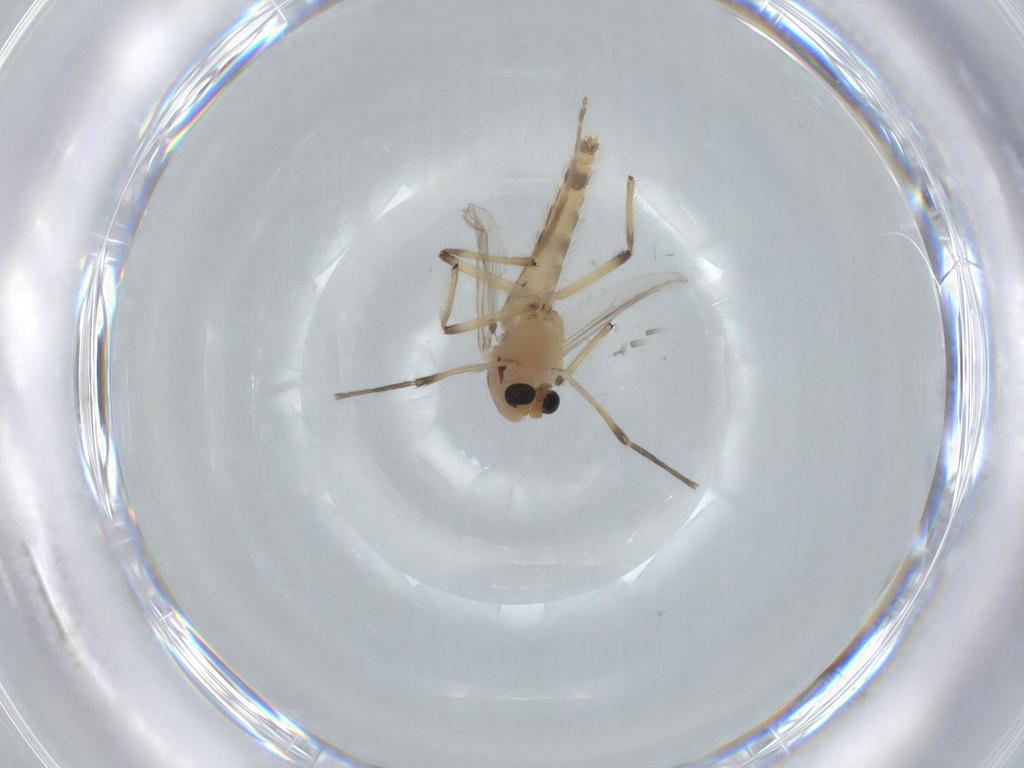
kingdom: Animalia
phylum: Arthropoda
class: Insecta
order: Diptera
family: Chironomidae
